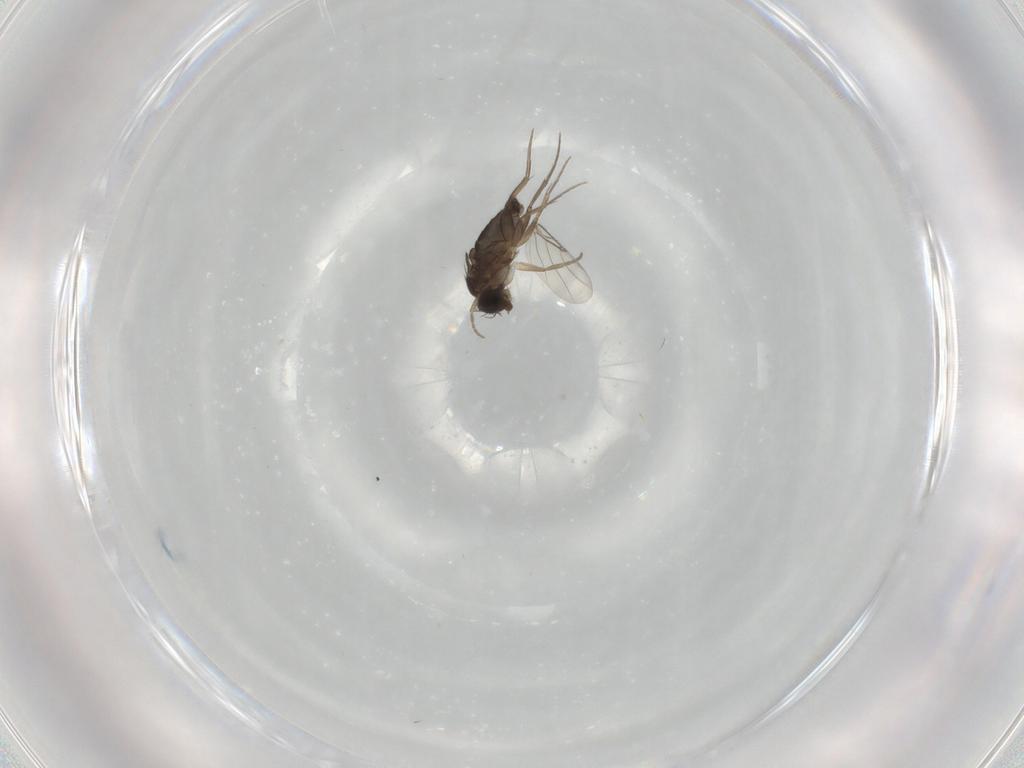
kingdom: Animalia
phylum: Arthropoda
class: Insecta
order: Diptera
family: Phoridae
